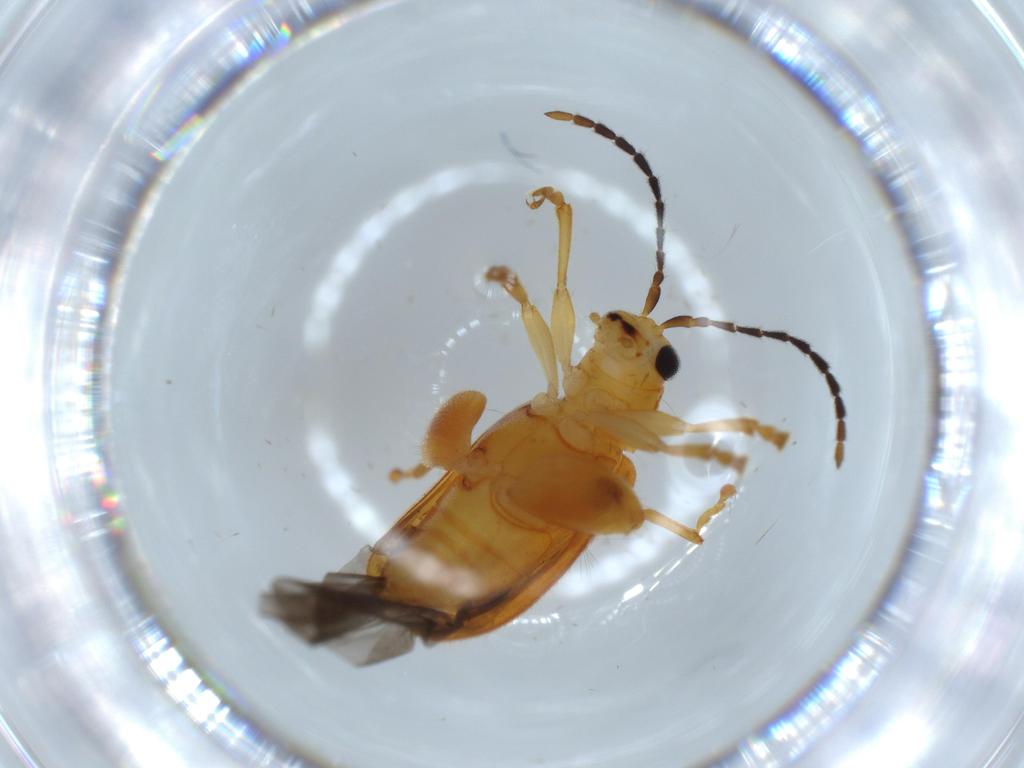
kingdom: Animalia
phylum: Arthropoda
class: Insecta
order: Coleoptera
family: Chrysomelidae
